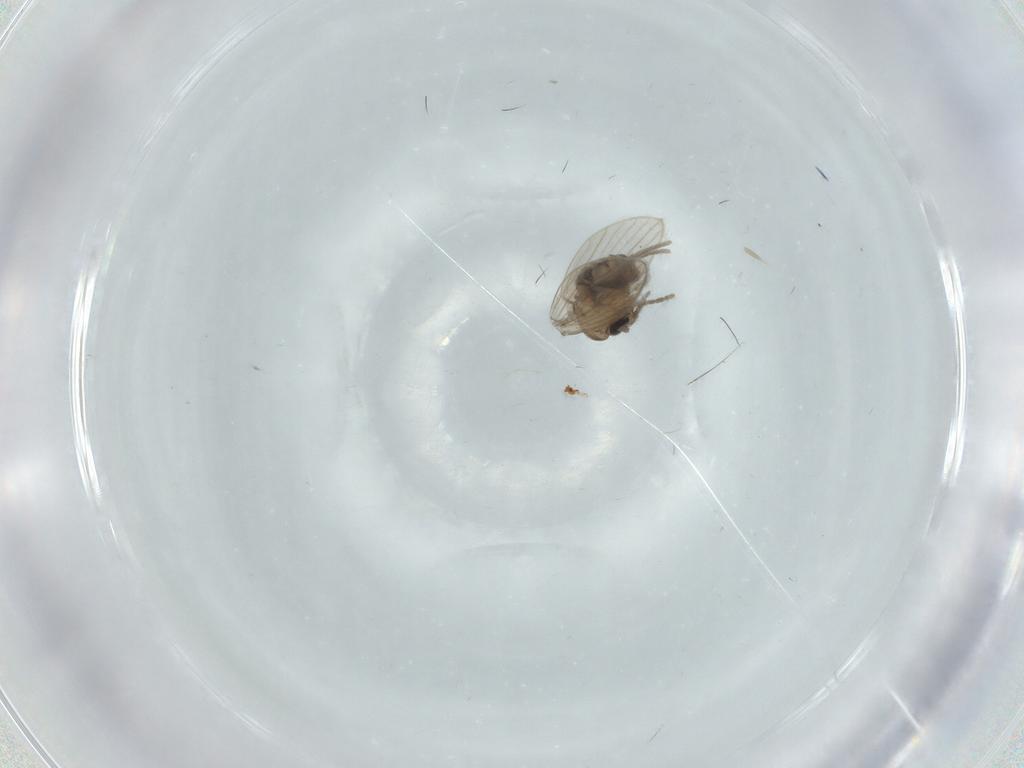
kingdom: Animalia
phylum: Arthropoda
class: Insecta
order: Diptera
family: Psychodidae
